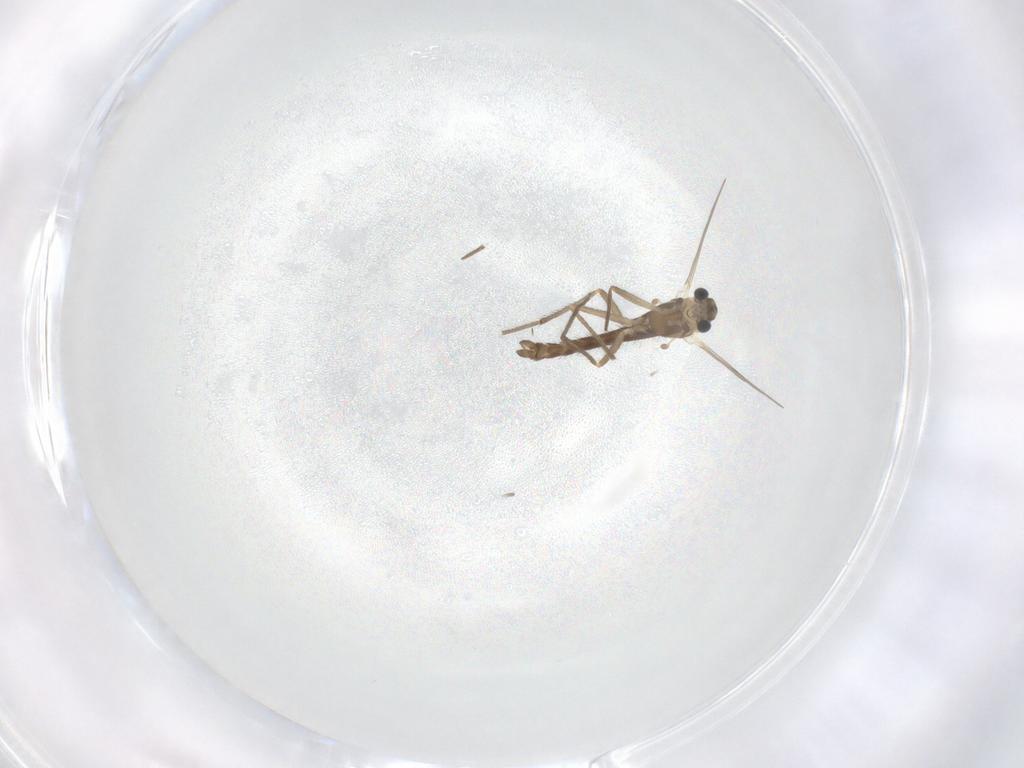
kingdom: Animalia
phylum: Arthropoda
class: Insecta
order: Diptera
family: Chironomidae
